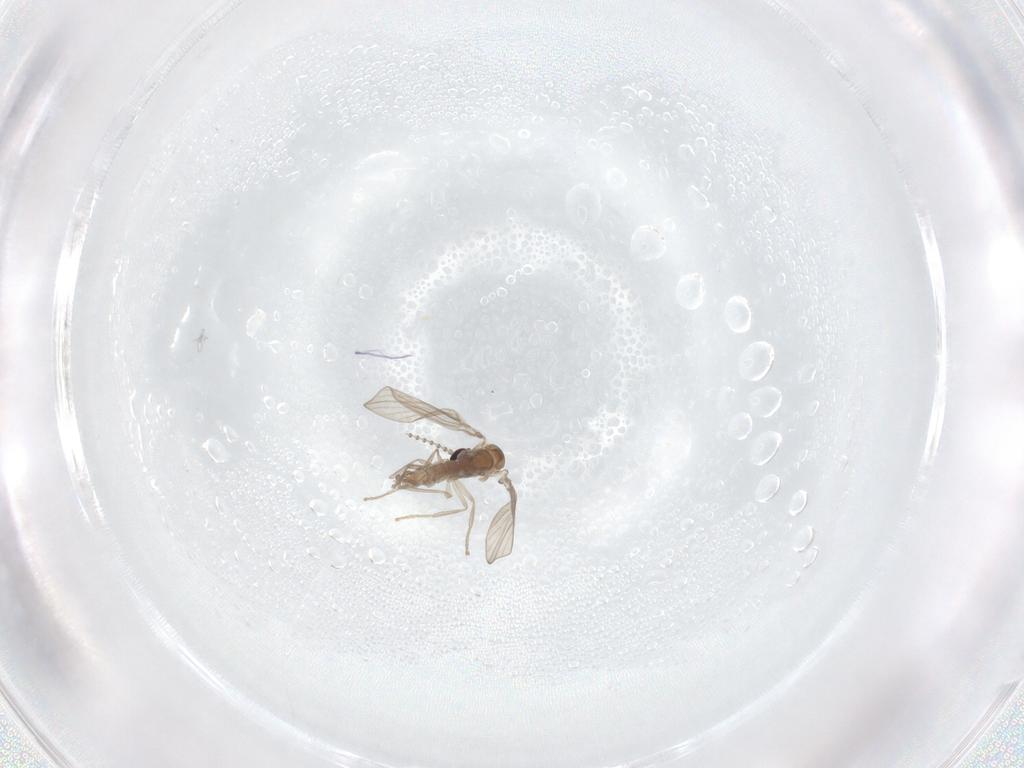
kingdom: Animalia
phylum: Arthropoda
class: Insecta
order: Diptera
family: Psychodidae
